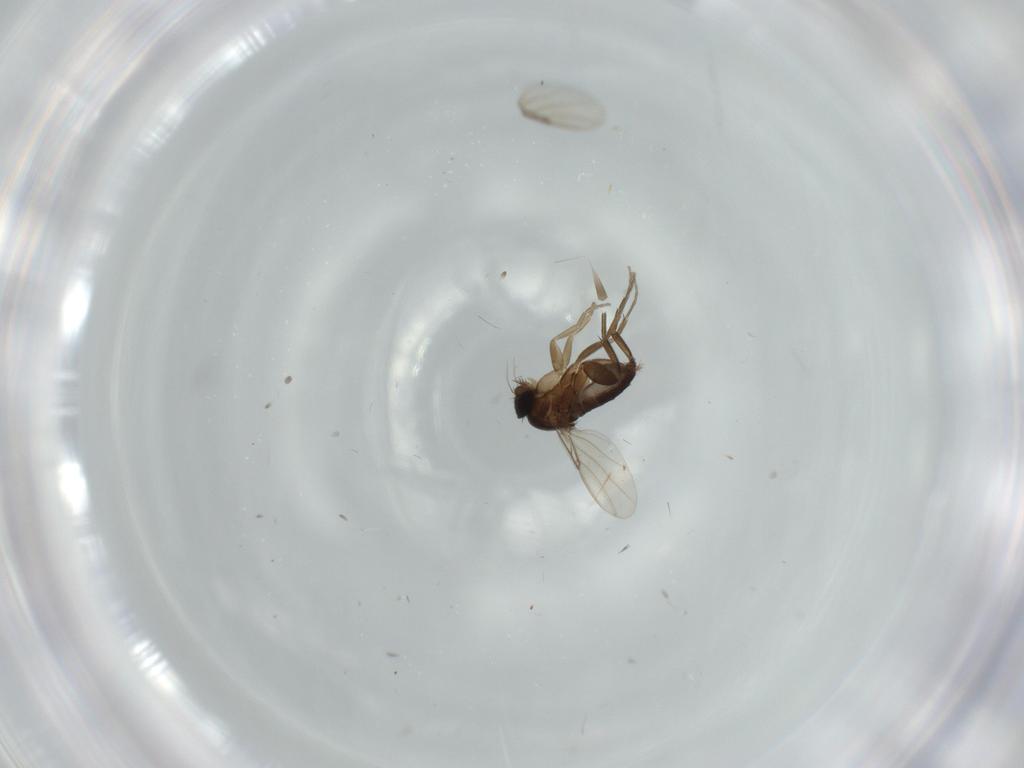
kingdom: Animalia
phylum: Arthropoda
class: Insecta
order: Diptera
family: Phoridae
